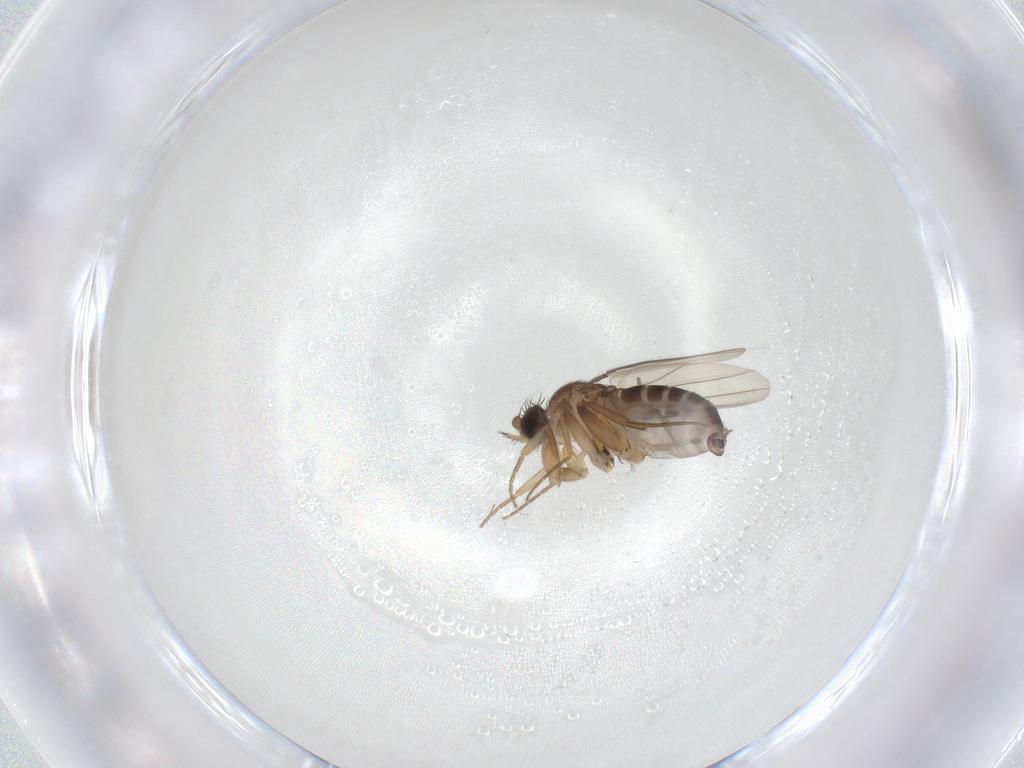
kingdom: Animalia
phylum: Arthropoda
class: Insecta
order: Diptera
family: Phoridae
